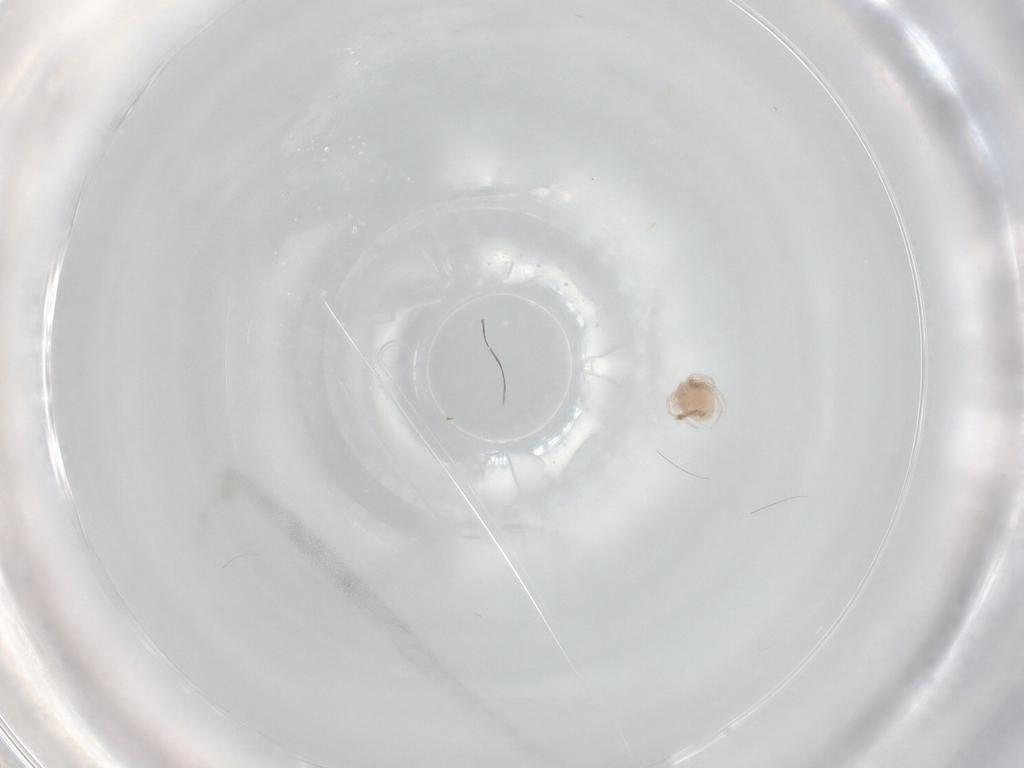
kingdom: Animalia
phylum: Arthropoda
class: Arachnida
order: Trombidiformes
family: Lebertiidae
